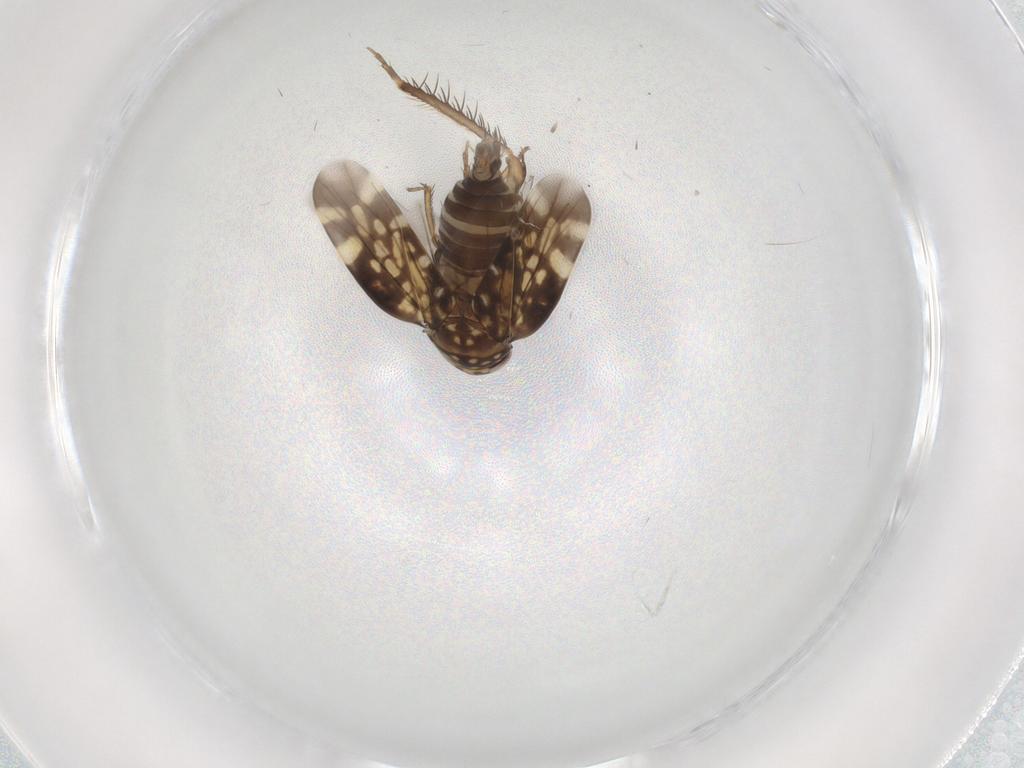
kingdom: Animalia
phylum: Arthropoda
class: Insecta
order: Hemiptera
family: Cicadellidae
